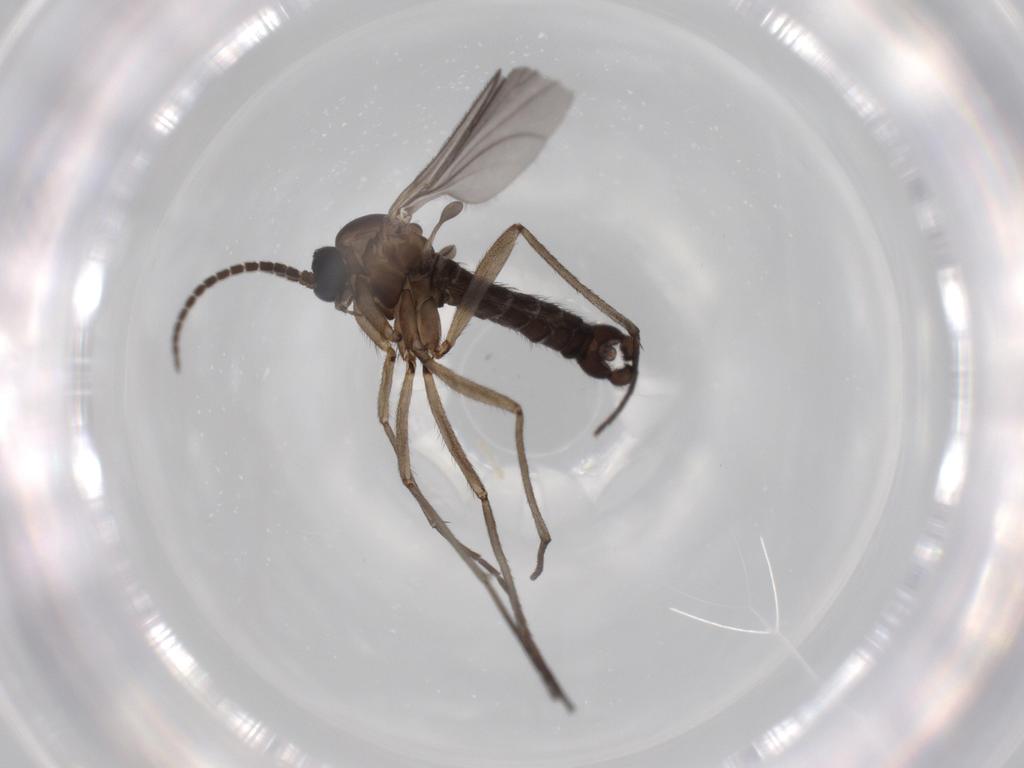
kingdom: Animalia
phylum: Arthropoda
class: Insecta
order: Diptera
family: Sciaridae
